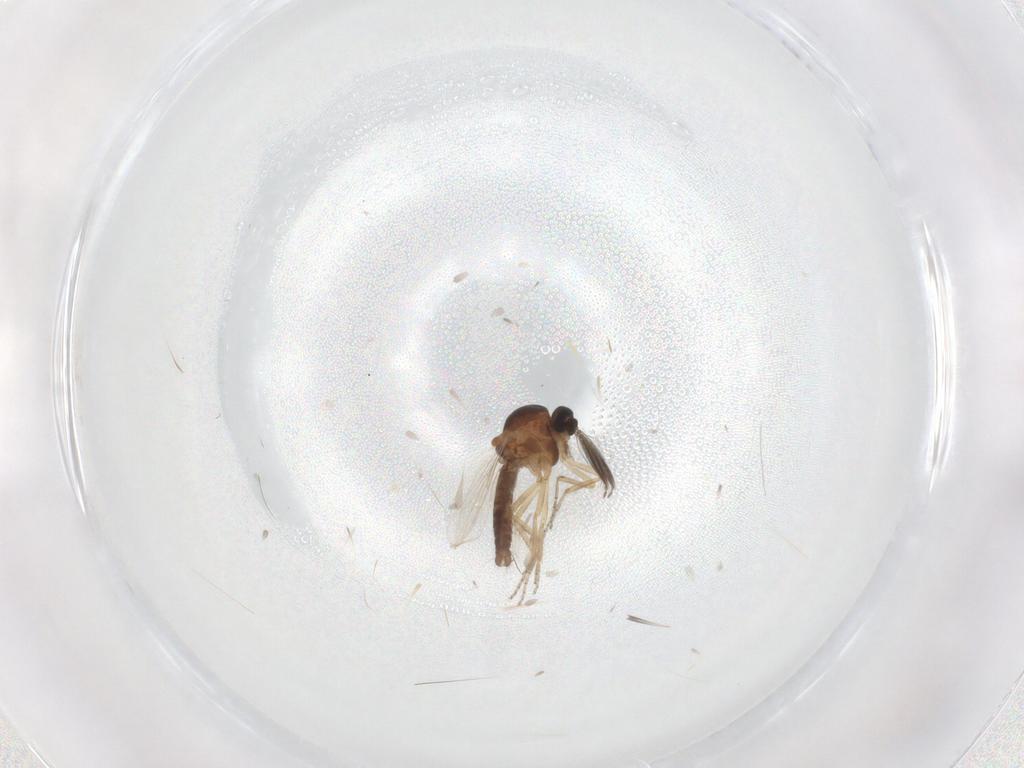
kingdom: Animalia
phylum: Arthropoda
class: Insecta
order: Diptera
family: Ceratopogonidae
